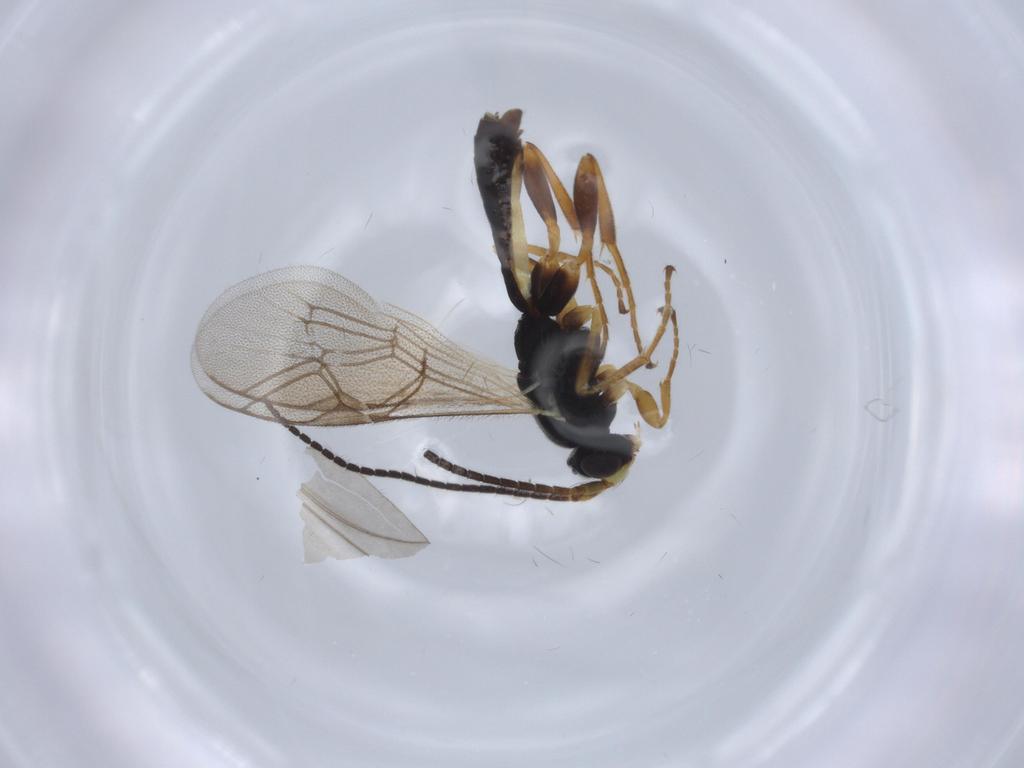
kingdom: Animalia
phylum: Arthropoda
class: Insecta
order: Hymenoptera
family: Ichneumonidae
